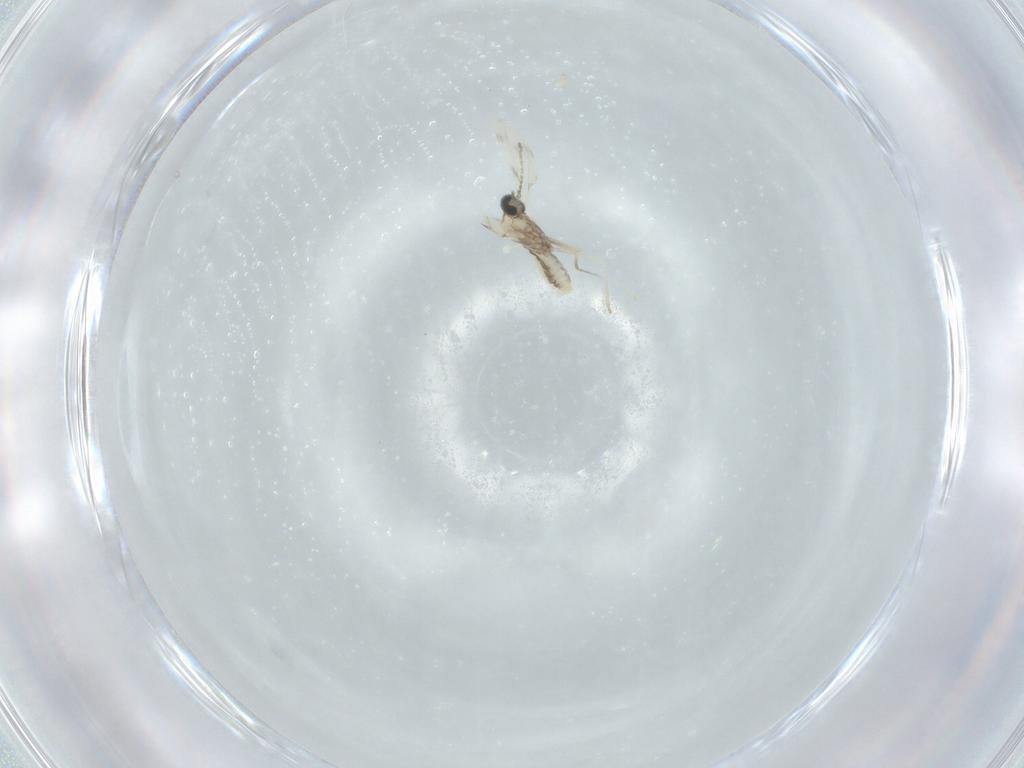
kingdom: Animalia
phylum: Arthropoda
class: Insecta
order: Diptera
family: Cecidomyiidae
